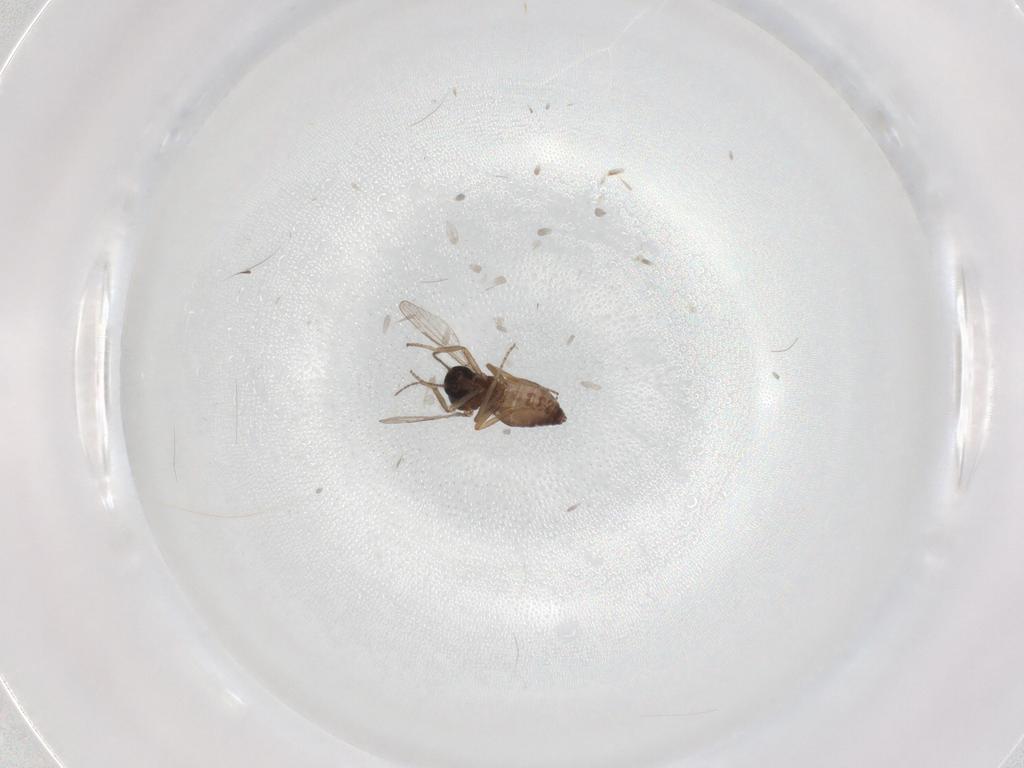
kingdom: Animalia
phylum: Arthropoda
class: Insecta
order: Diptera
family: Ceratopogonidae
